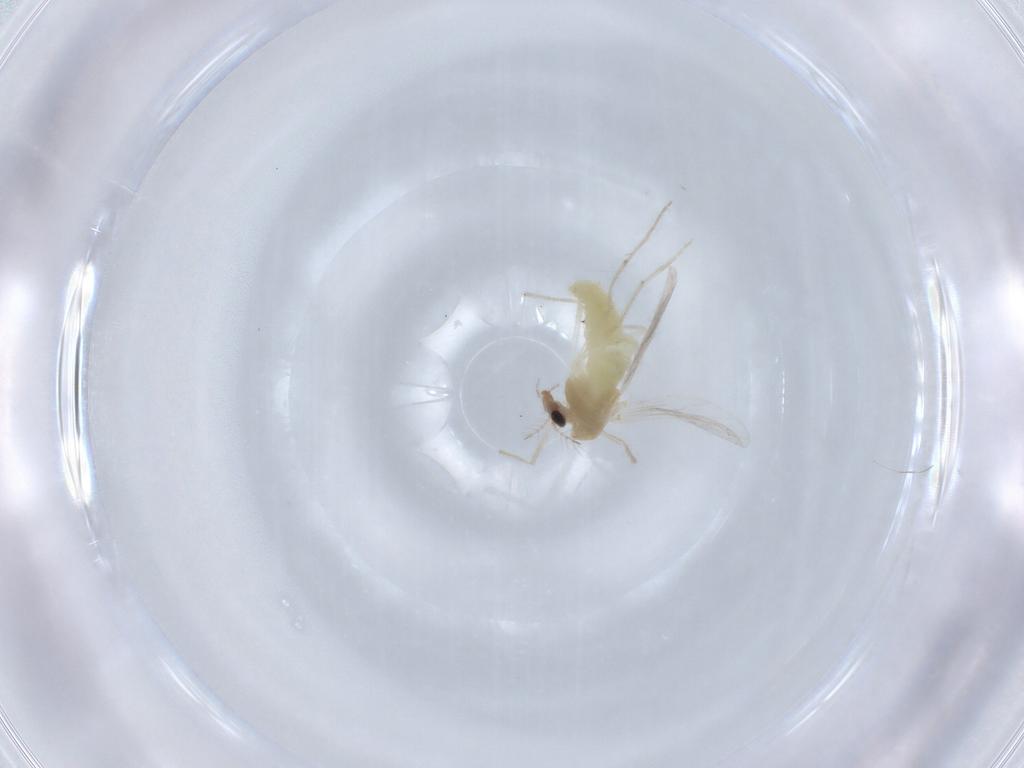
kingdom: Animalia
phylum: Arthropoda
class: Insecta
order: Diptera
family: Chironomidae
